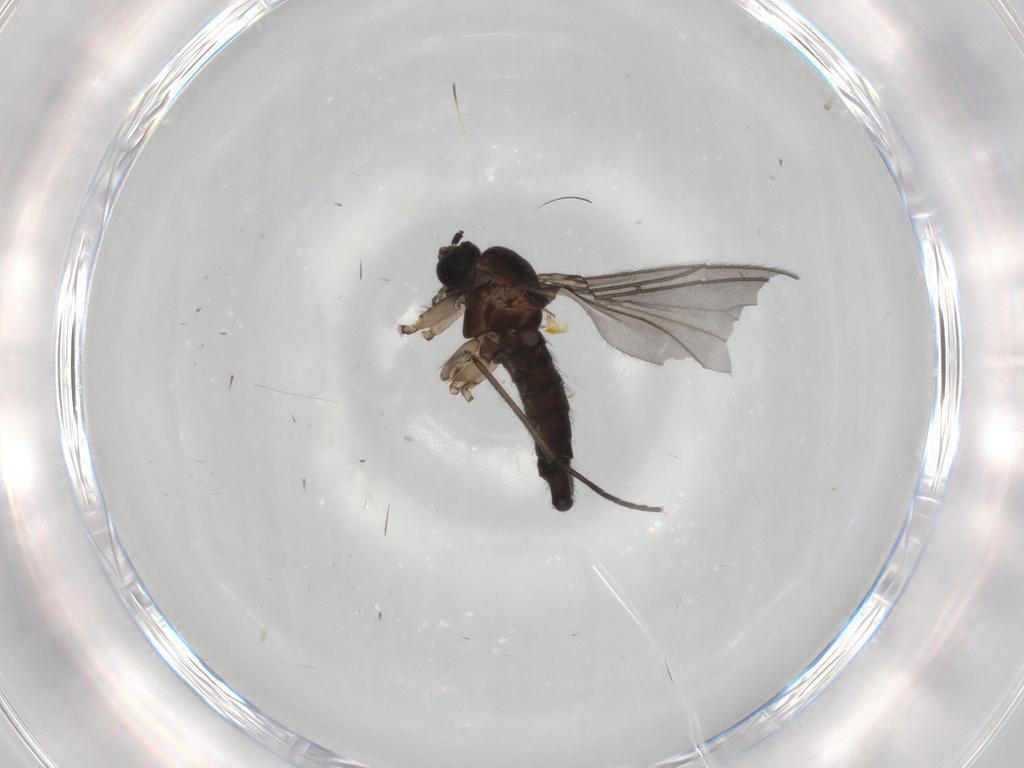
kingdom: Animalia
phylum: Arthropoda
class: Insecta
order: Diptera
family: Sciaridae
